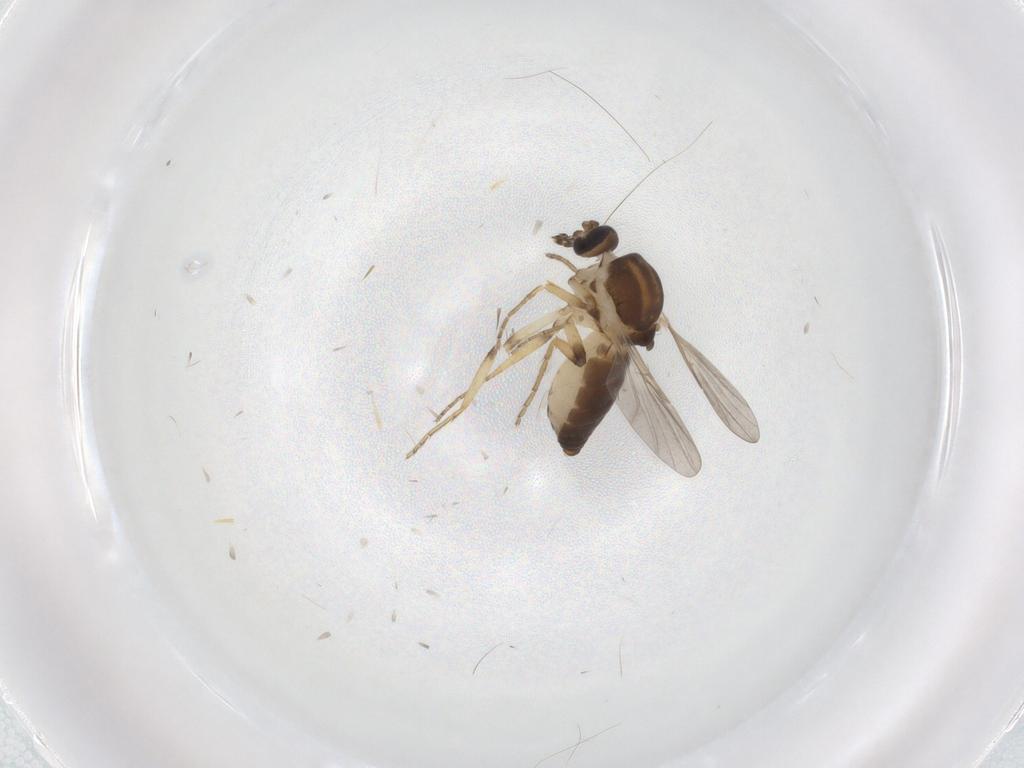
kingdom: Animalia
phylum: Arthropoda
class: Insecta
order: Diptera
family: Ceratopogonidae
